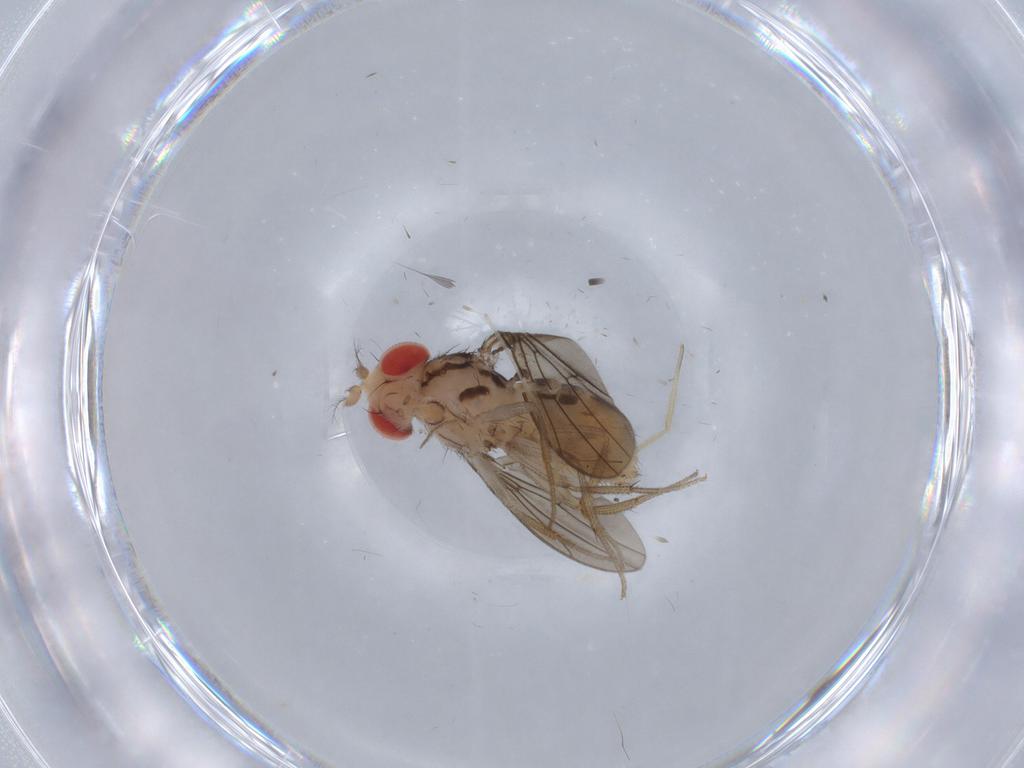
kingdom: Animalia
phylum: Arthropoda
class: Insecta
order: Diptera
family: Drosophilidae
